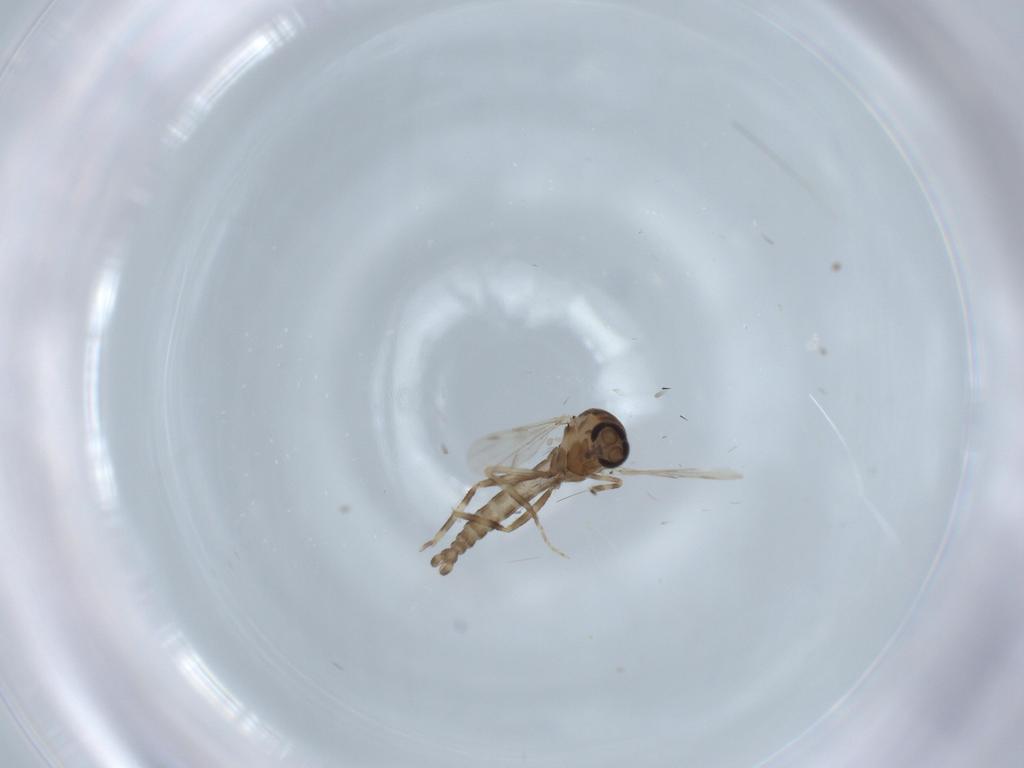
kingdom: Animalia
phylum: Arthropoda
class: Insecta
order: Diptera
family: Ceratopogonidae
